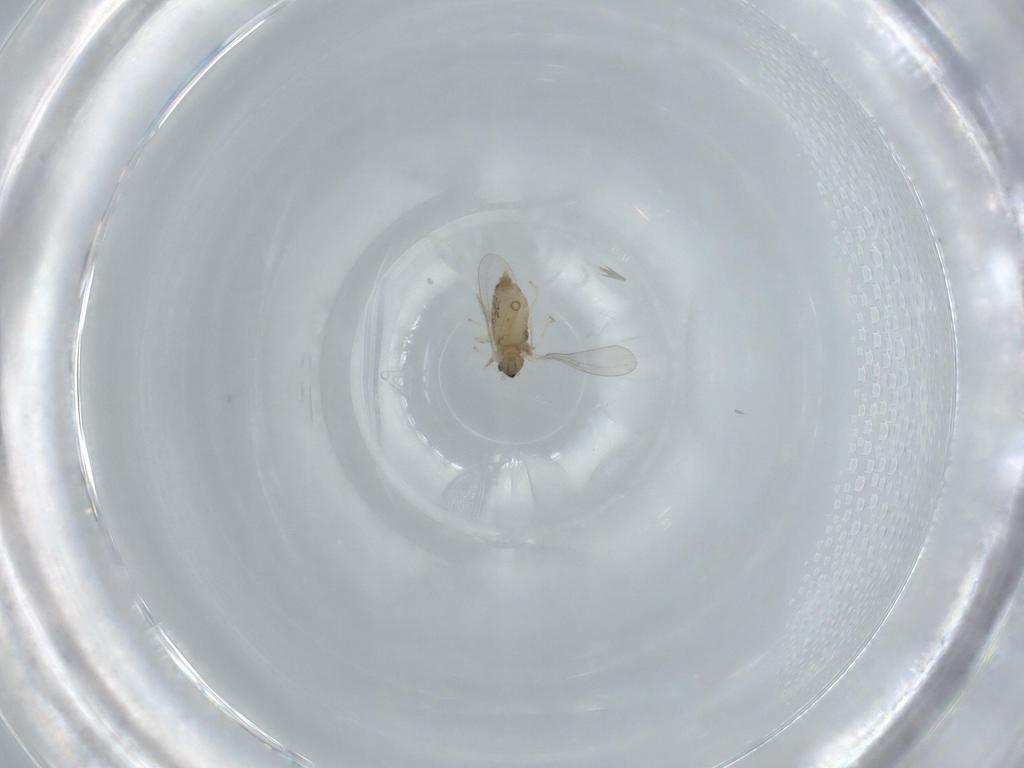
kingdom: Animalia
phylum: Arthropoda
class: Insecta
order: Diptera
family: Cecidomyiidae
